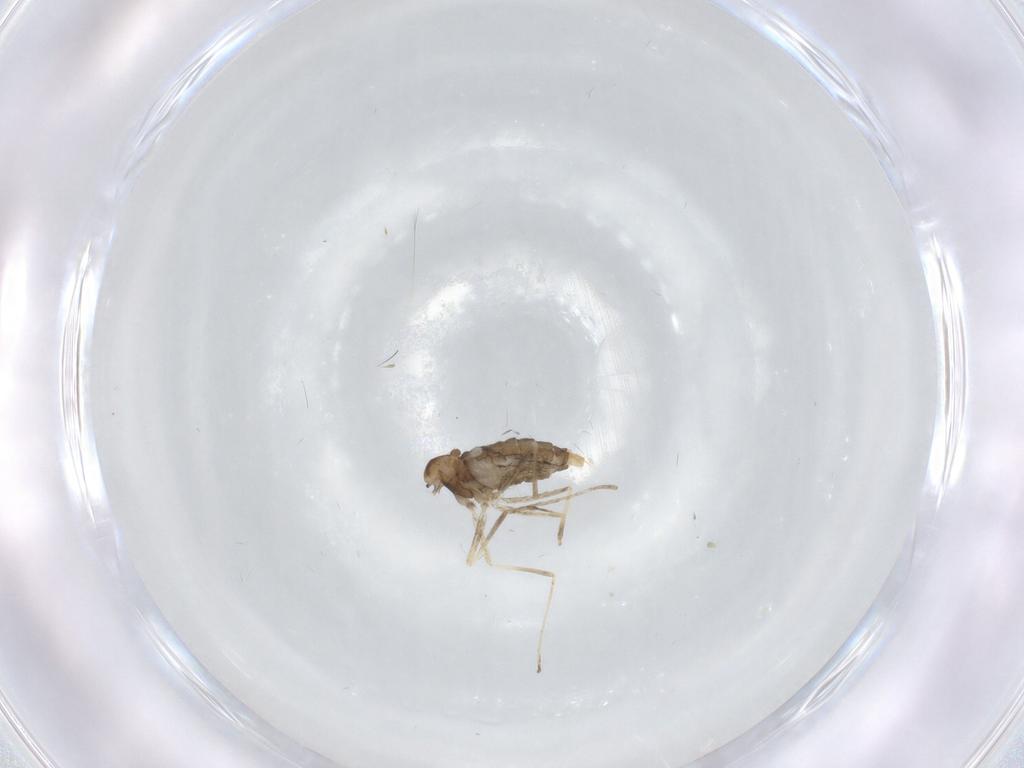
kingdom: Animalia
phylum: Arthropoda
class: Insecta
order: Diptera
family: Cecidomyiidae
